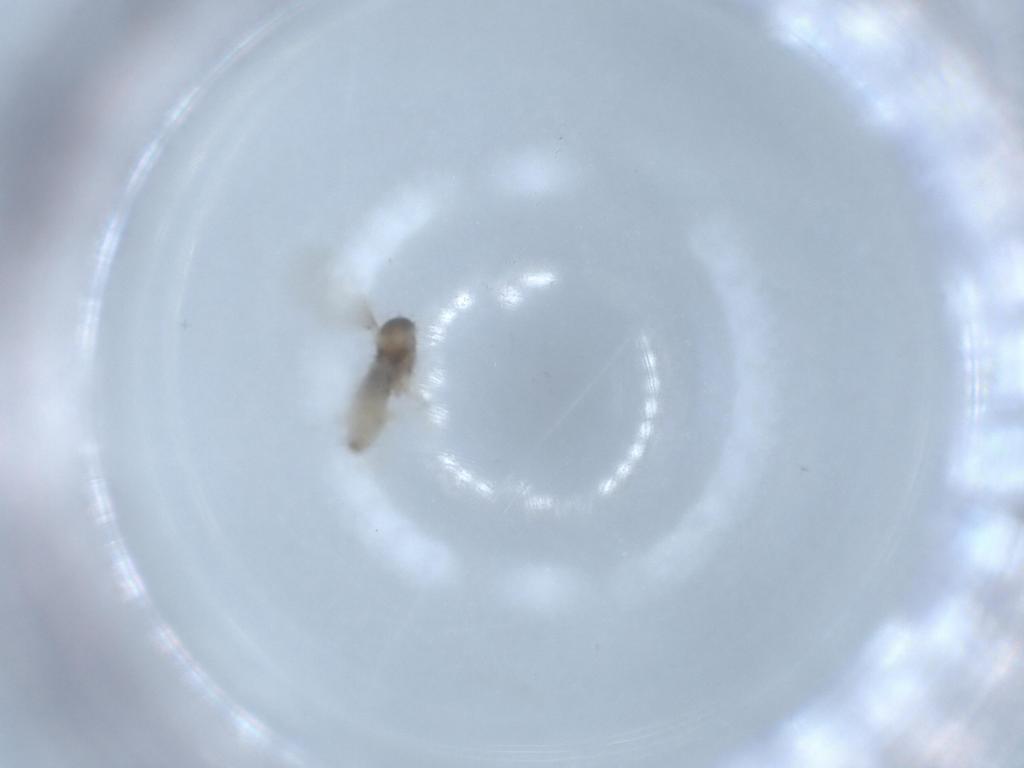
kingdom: Animalia
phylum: Arthropoda
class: Insecta
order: Diptera
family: Cecidomyiidae
